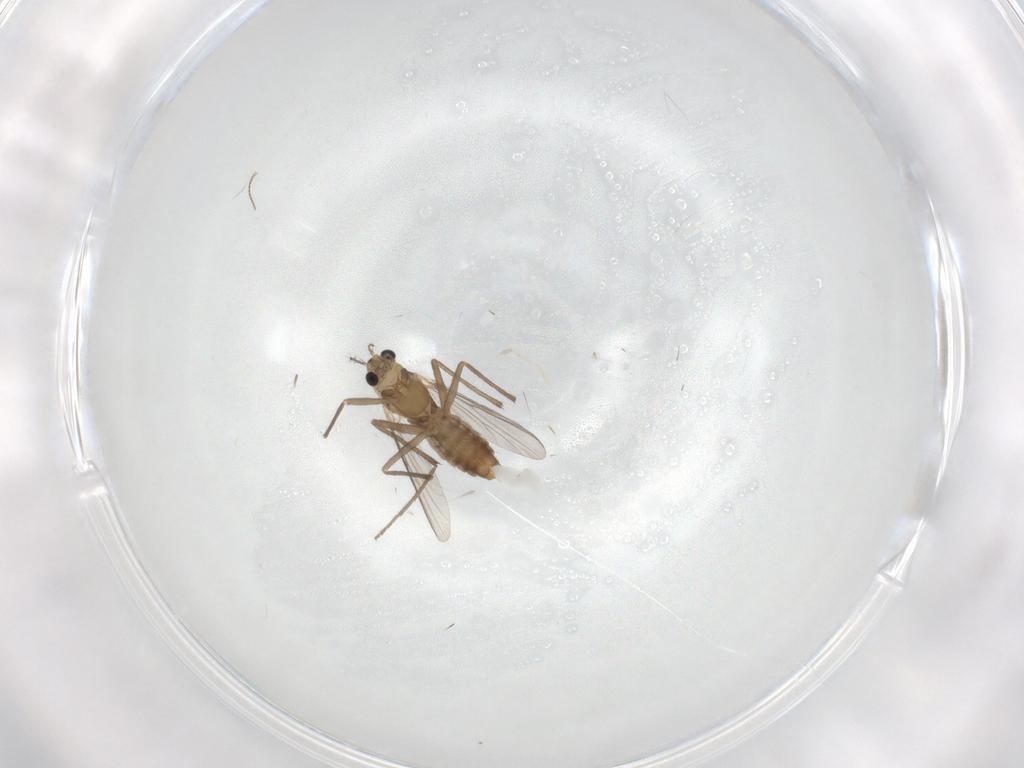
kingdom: Animalia
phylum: Arthropoda
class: Insecta
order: Diptera
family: Chironomidae
